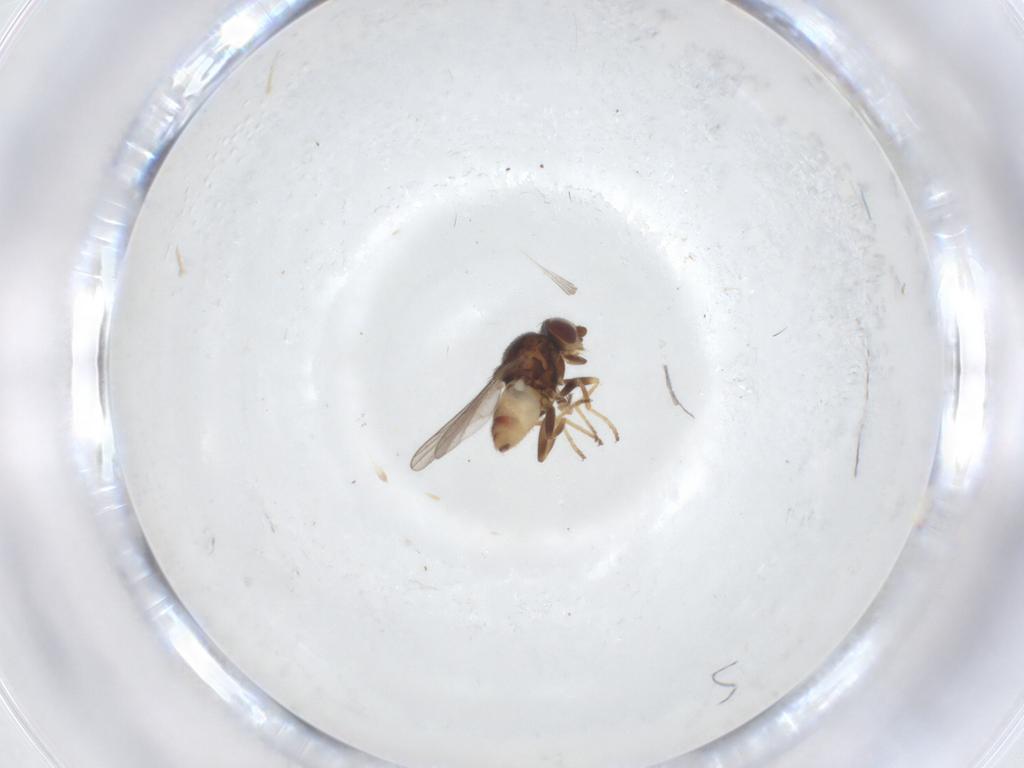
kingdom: Animalia
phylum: Arthropoda
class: Insecta
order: Diptera
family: Chloropidae
